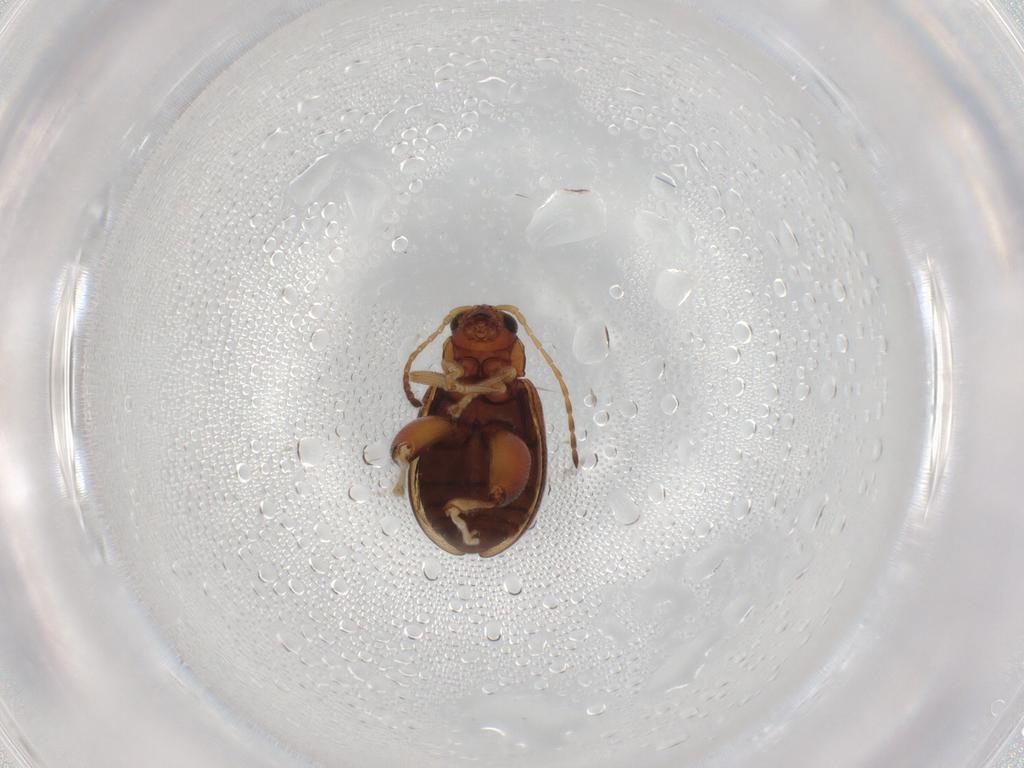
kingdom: Animalia
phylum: Arthropoda
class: Insecta
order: Coleoptera
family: Chrysomelidae
